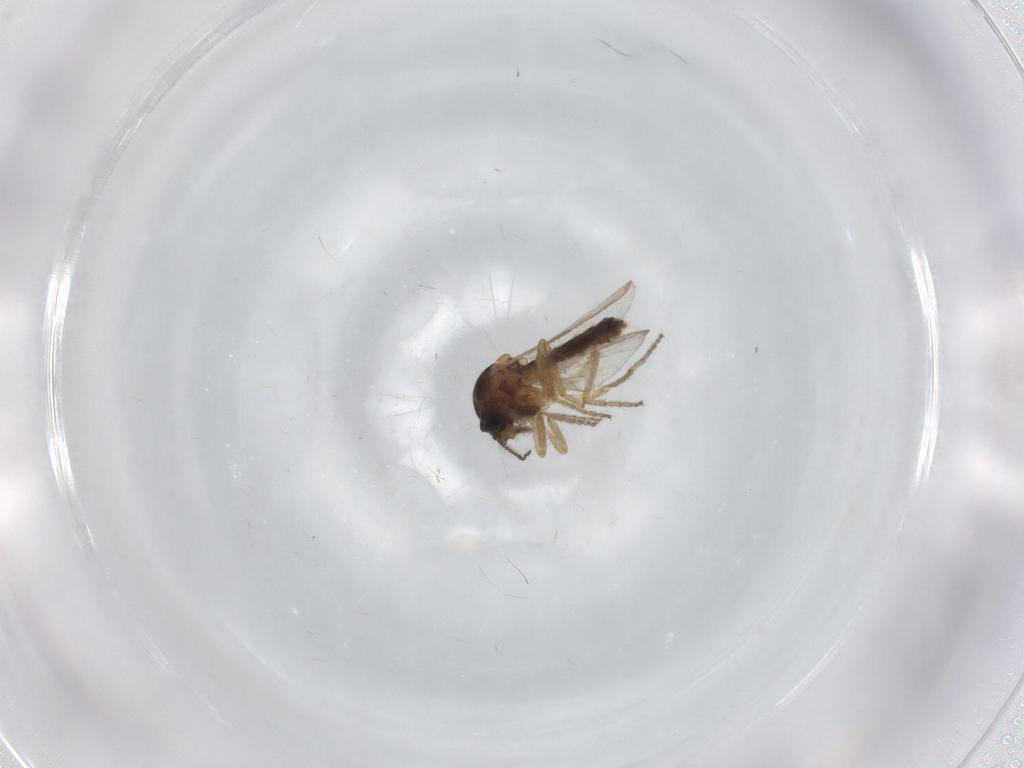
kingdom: Animalia
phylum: Arthropoda
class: Insecta
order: Diptera
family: Ceratopogonidae
